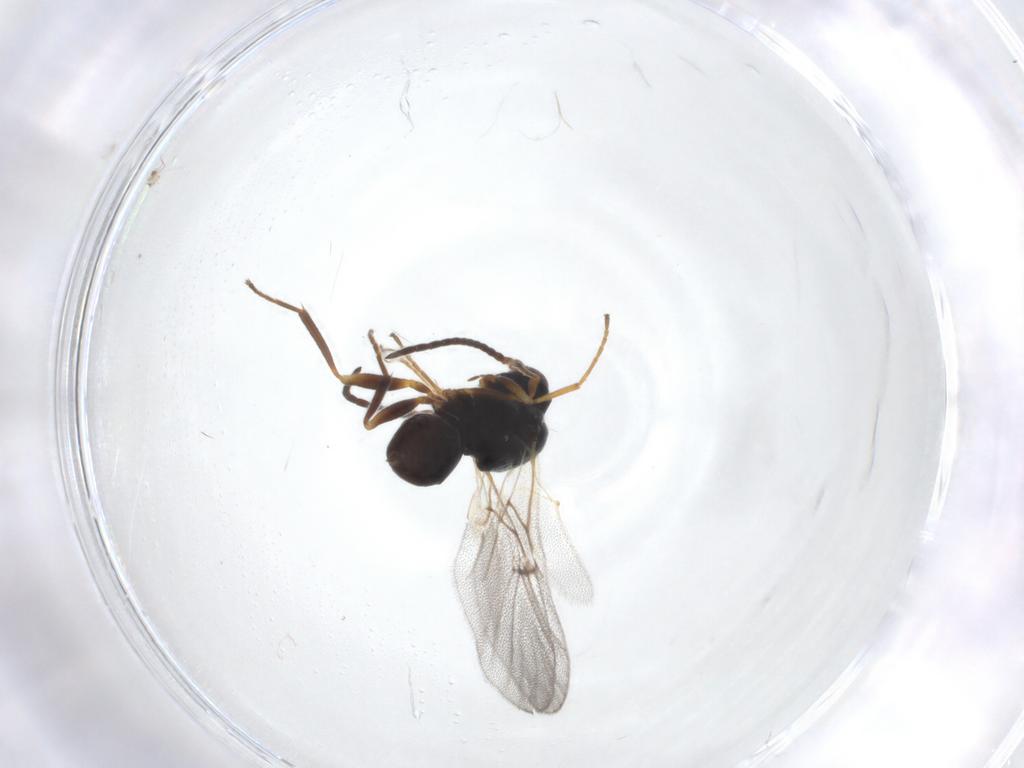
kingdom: Animalia
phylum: Arthropoda
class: Insecta
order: Hymenoptera
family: Cynipidae
